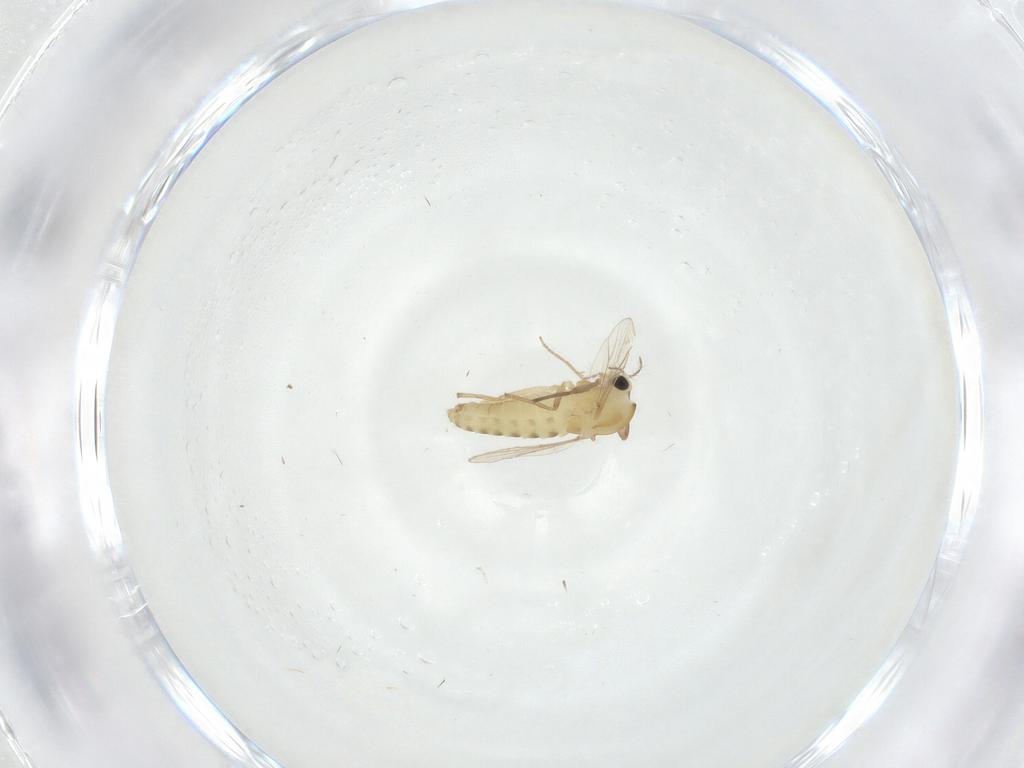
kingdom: Animalia
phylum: Arthropoda
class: Insecta
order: Diptera
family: Chironomidae
